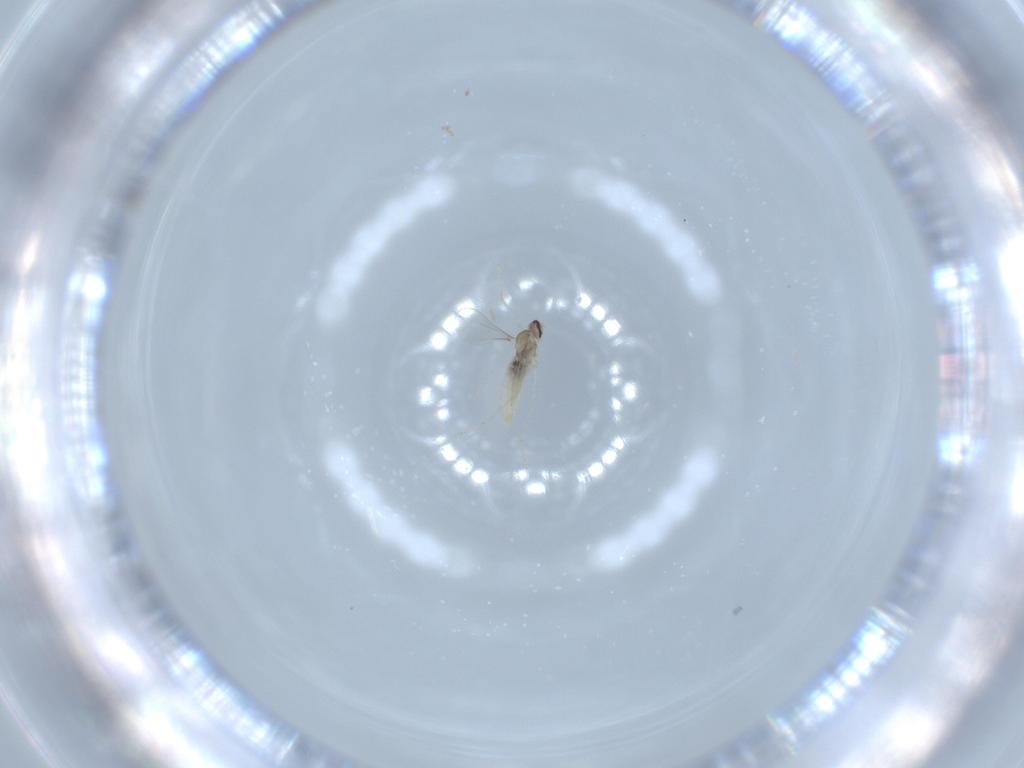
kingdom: Animalia
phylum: Arthropoda
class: Insecta
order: Diptera
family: Cecidomyiidae
